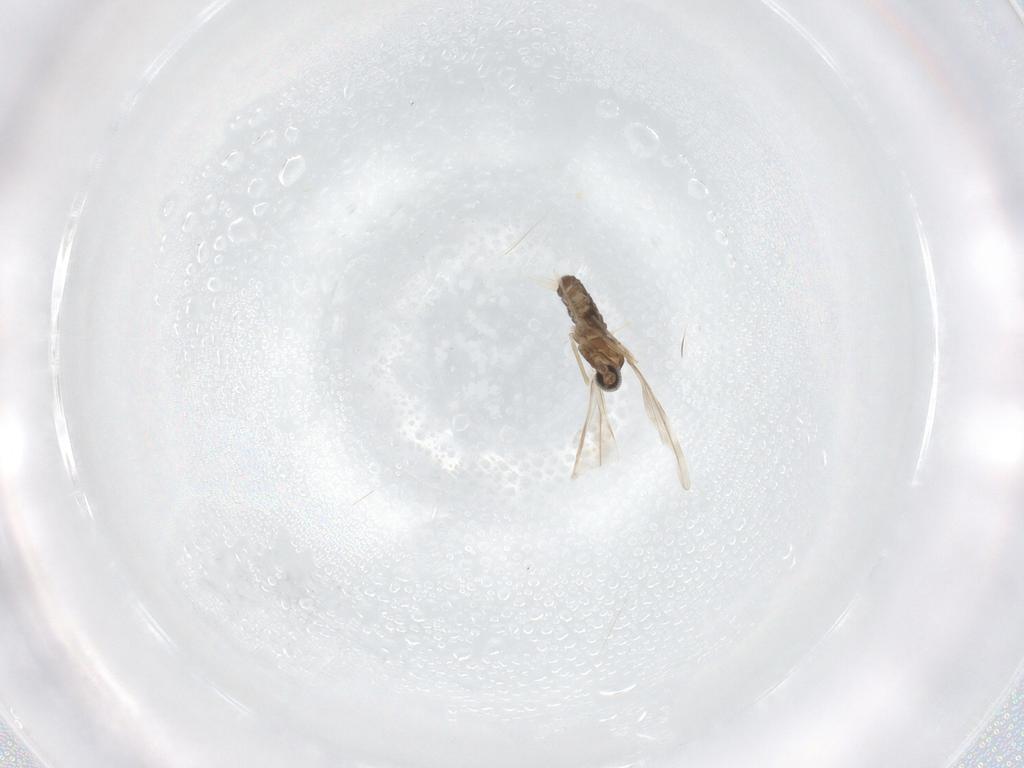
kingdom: Animalia
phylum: Arthropoda
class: Insecta
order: Diptera
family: Cecidomyiidae
